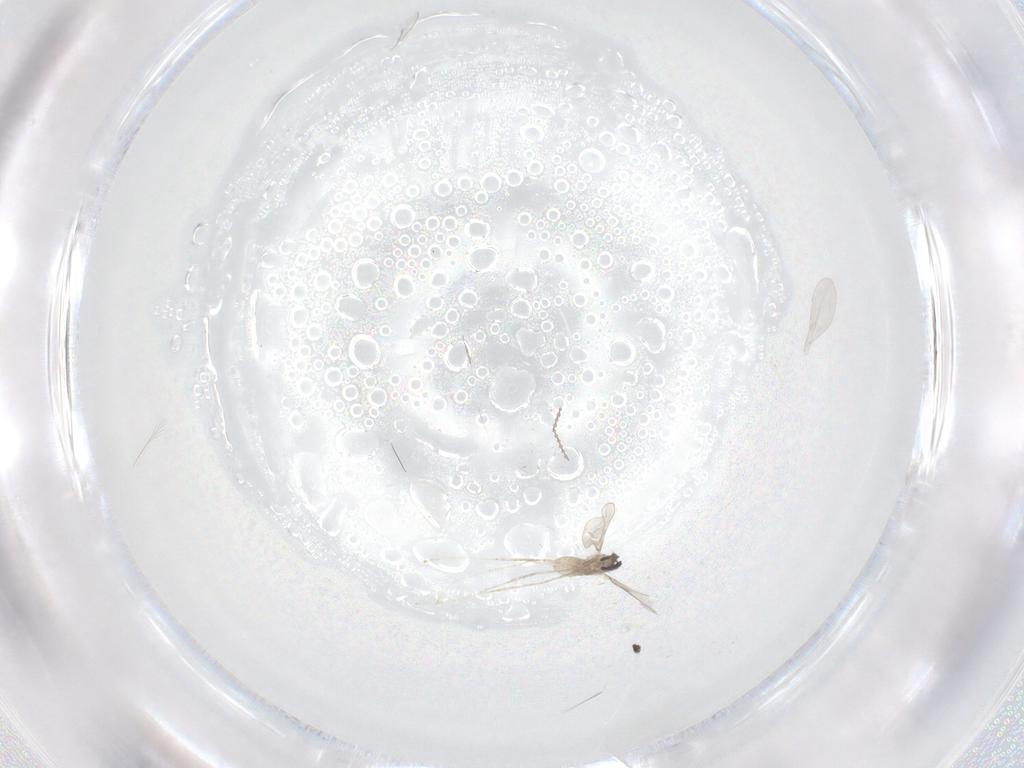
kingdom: Animalia
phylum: Arthropoda
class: Insecta
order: Diptera
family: Cecidomyiidae
